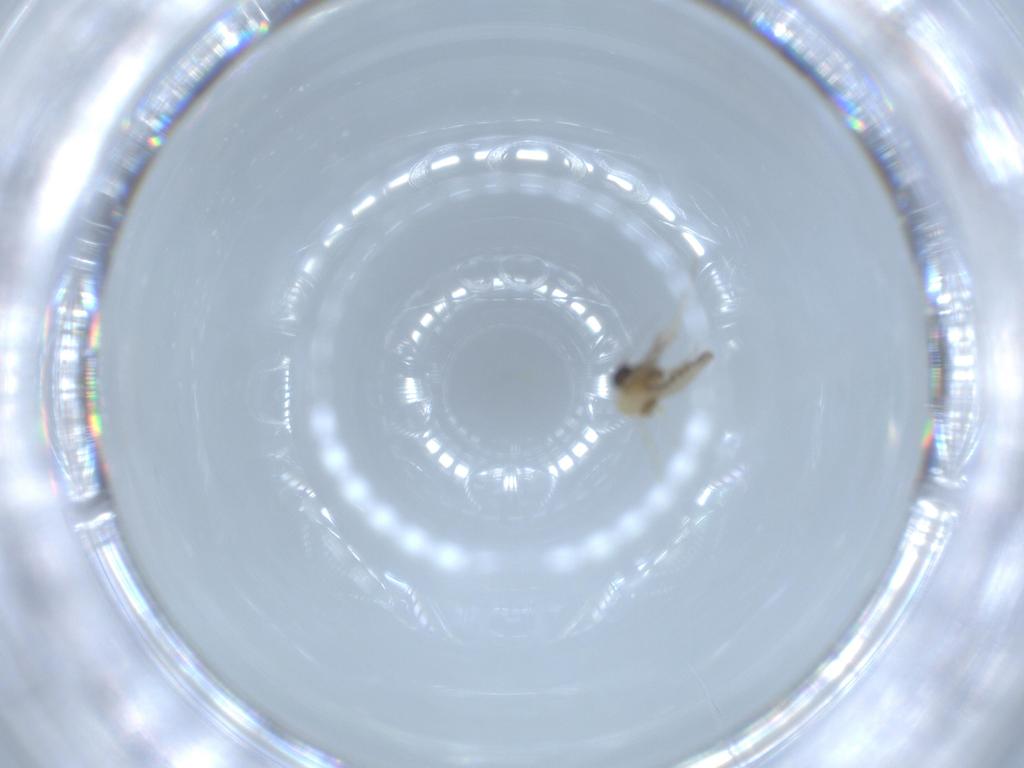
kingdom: Animalia
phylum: Arthropoda
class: Insecta
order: Diptera
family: Ceratopogonidae
